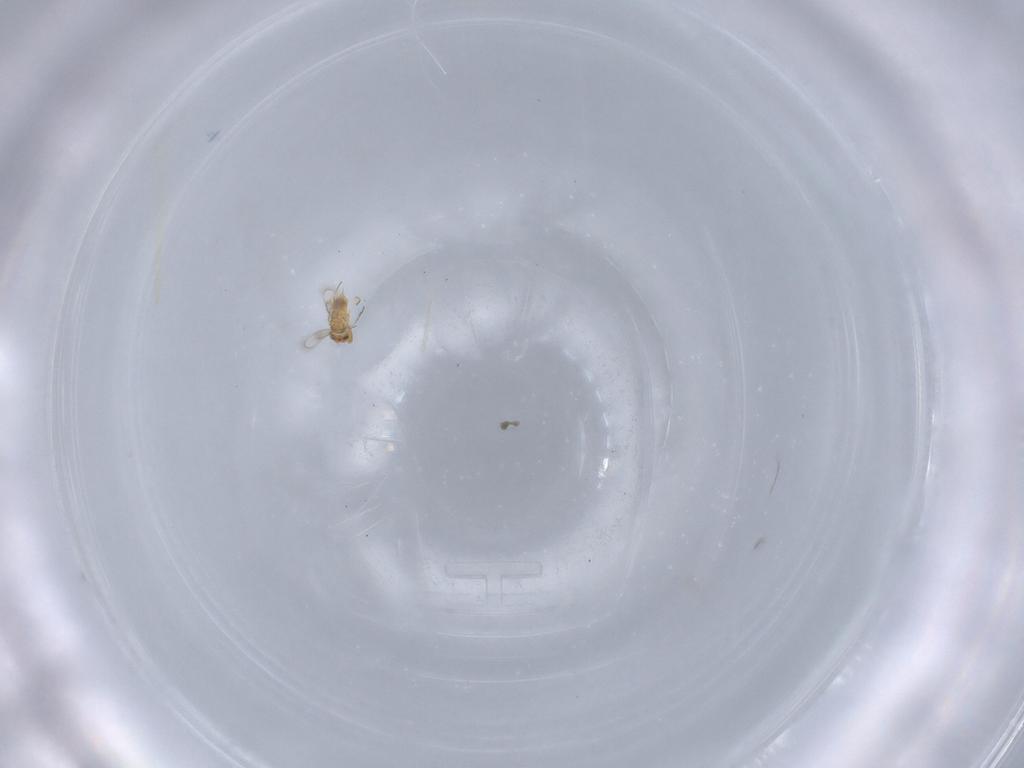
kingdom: Animalia
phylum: Arthropoda
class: Insecta
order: Hymenoptera
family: Aphelinidae
